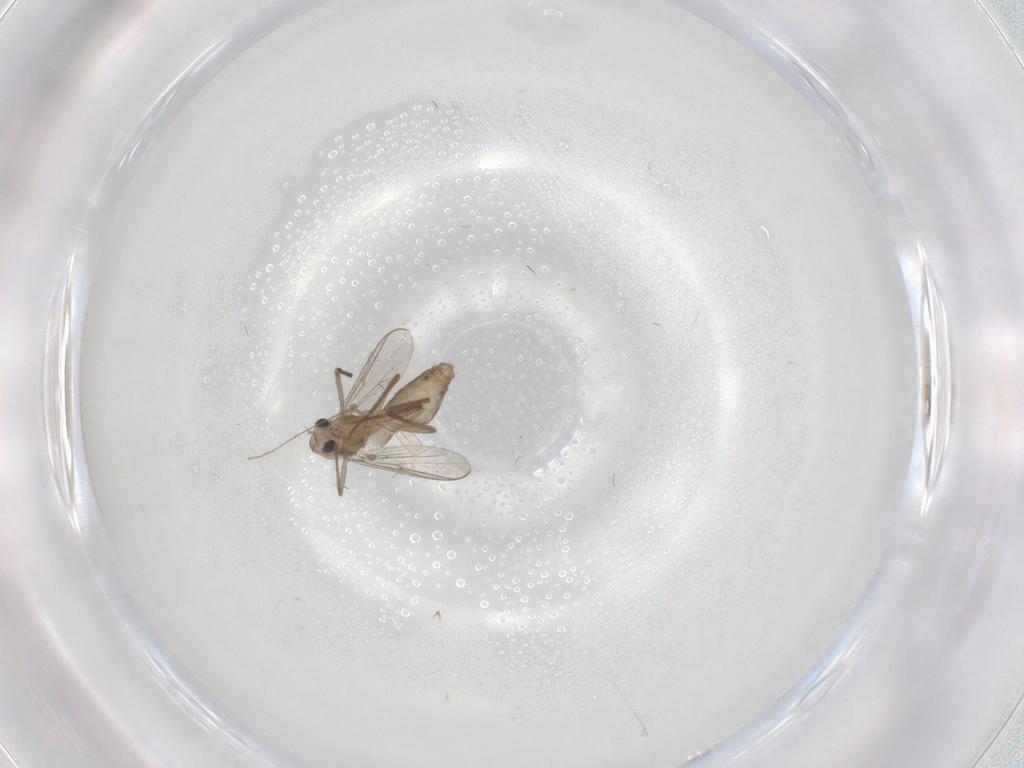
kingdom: Animalia
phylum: Arthropoda
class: Insecta
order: Diptera
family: Chironomidae
